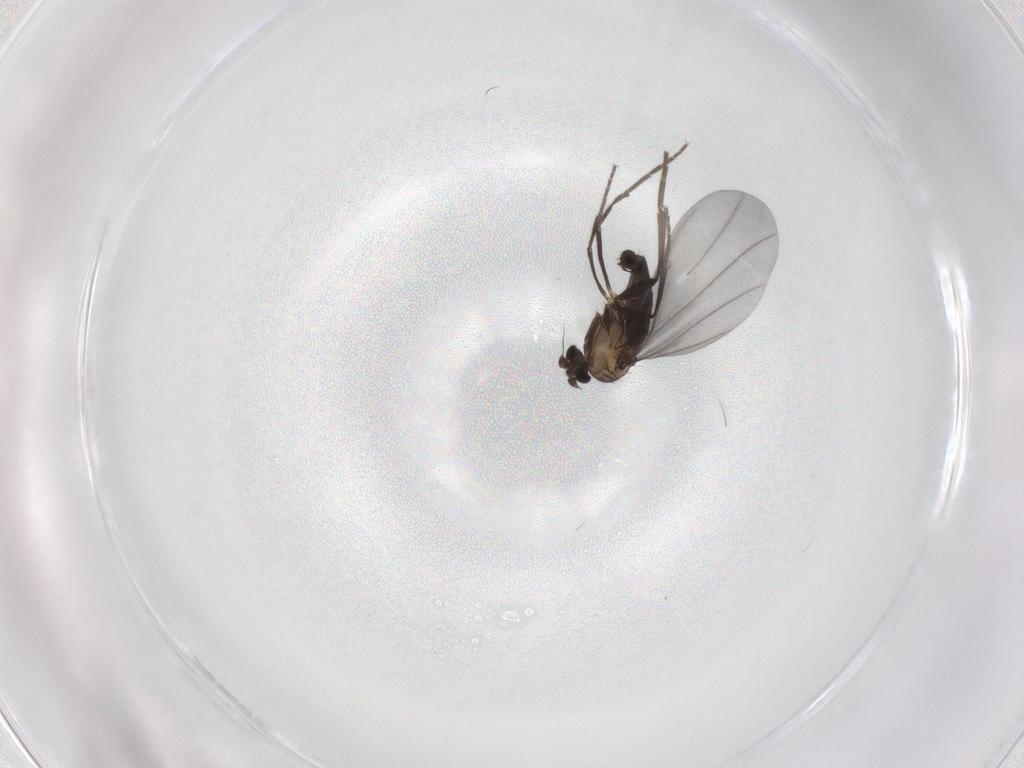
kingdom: Animalia
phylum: Arthropoda
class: Insecta
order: Diptera
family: Phoridae
